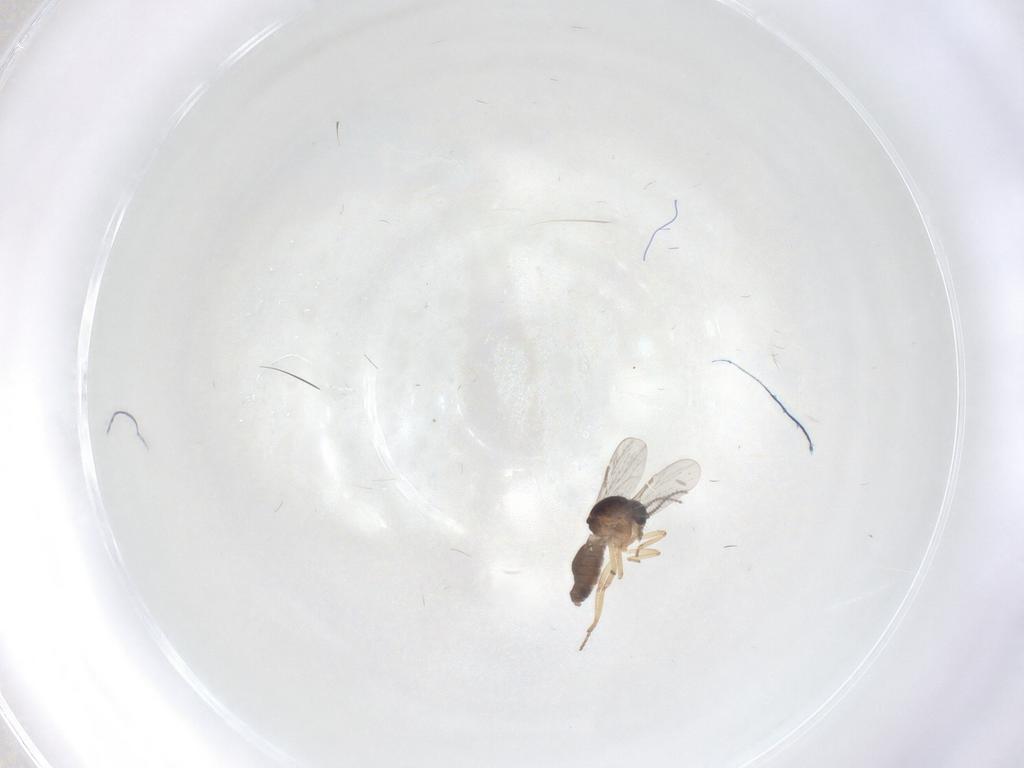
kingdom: Animalia
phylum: Arthropoda
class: Insecta
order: Diptera
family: Ceratopogonidae
